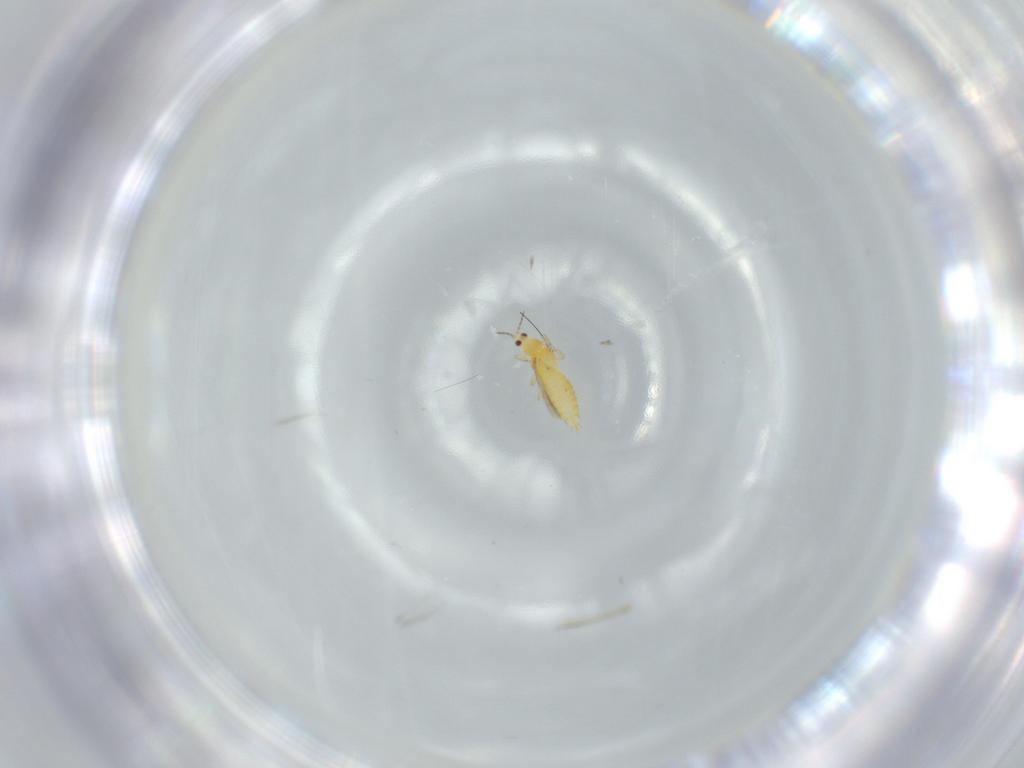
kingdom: Animalia
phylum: Arthropoda
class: Insecta
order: Thysanoptera
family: Thripidae
